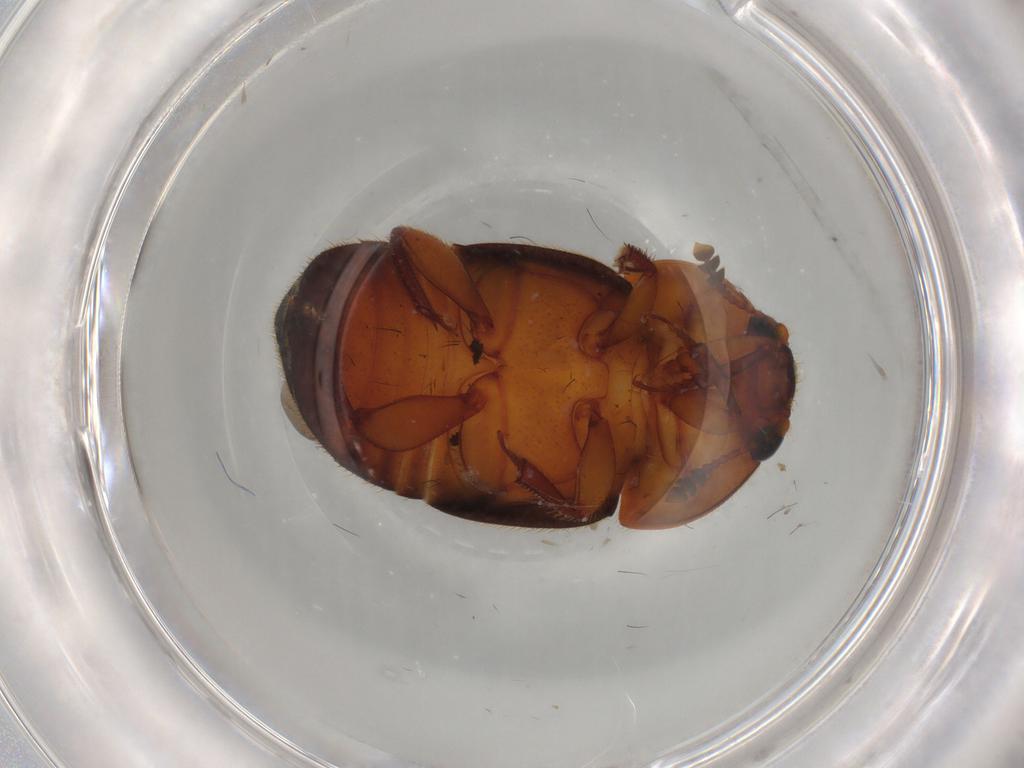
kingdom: Animalia
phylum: Arthropoda
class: Insecta
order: Coleoptera
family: Nitidulidae
